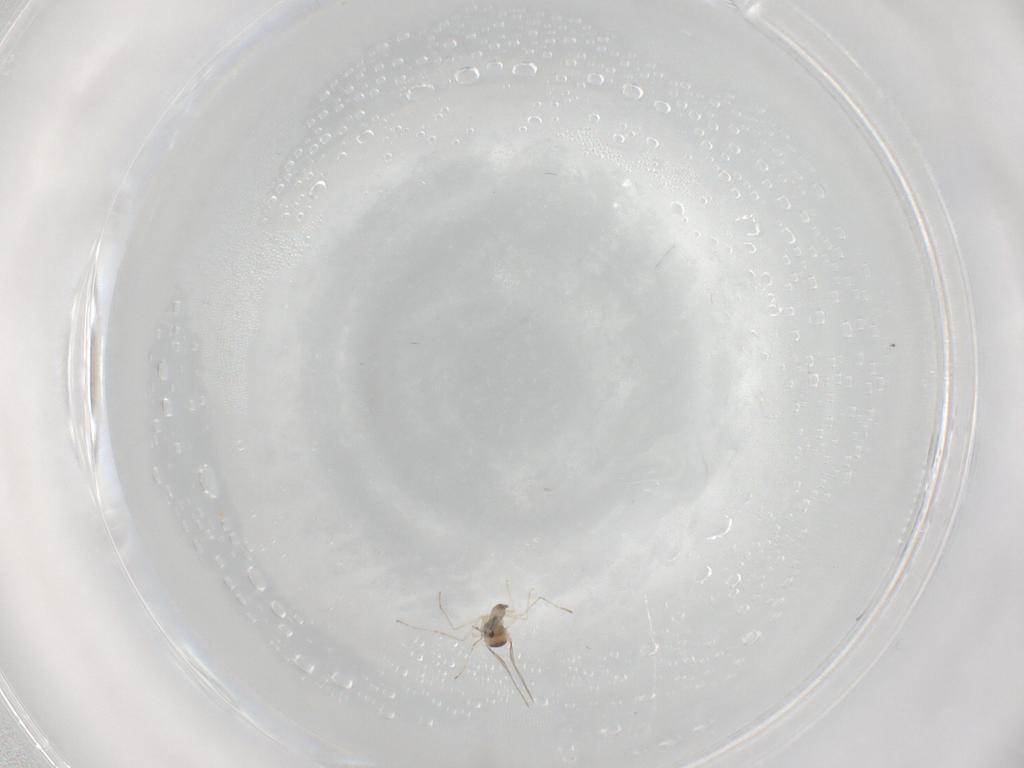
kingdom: Animalia
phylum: Arthropoda
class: Insecta
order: Diptera
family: Cecidomyiidae
